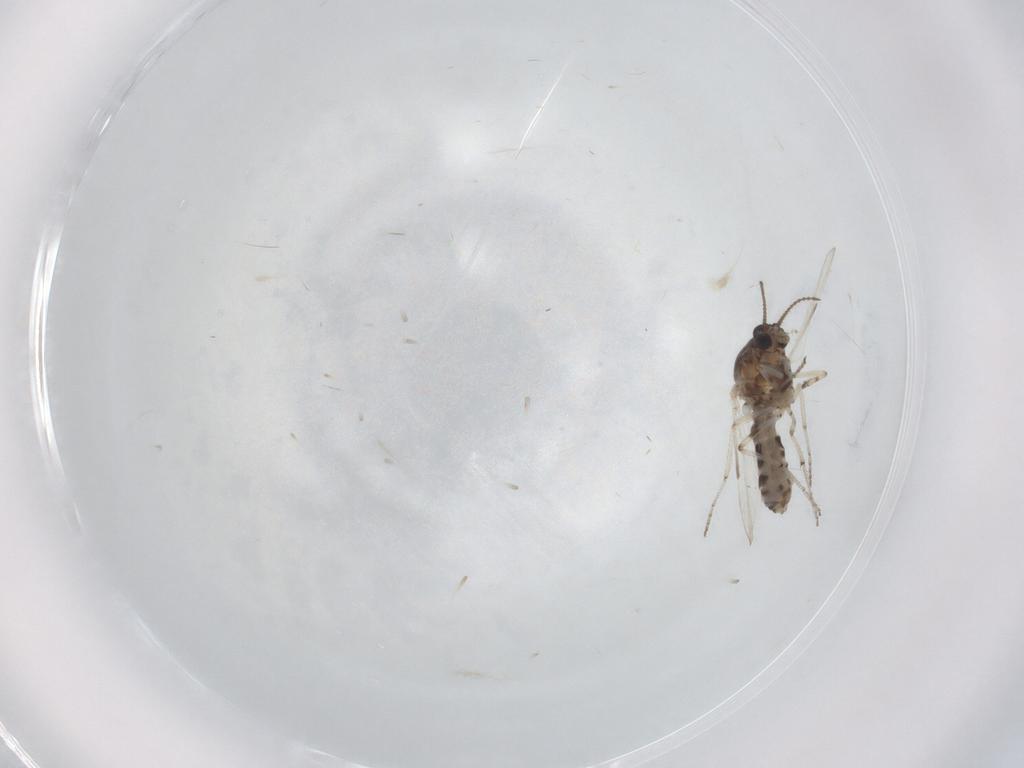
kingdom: Animalia
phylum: Arthropoda
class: Insecta
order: Diptera
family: Ceratopogonidae
